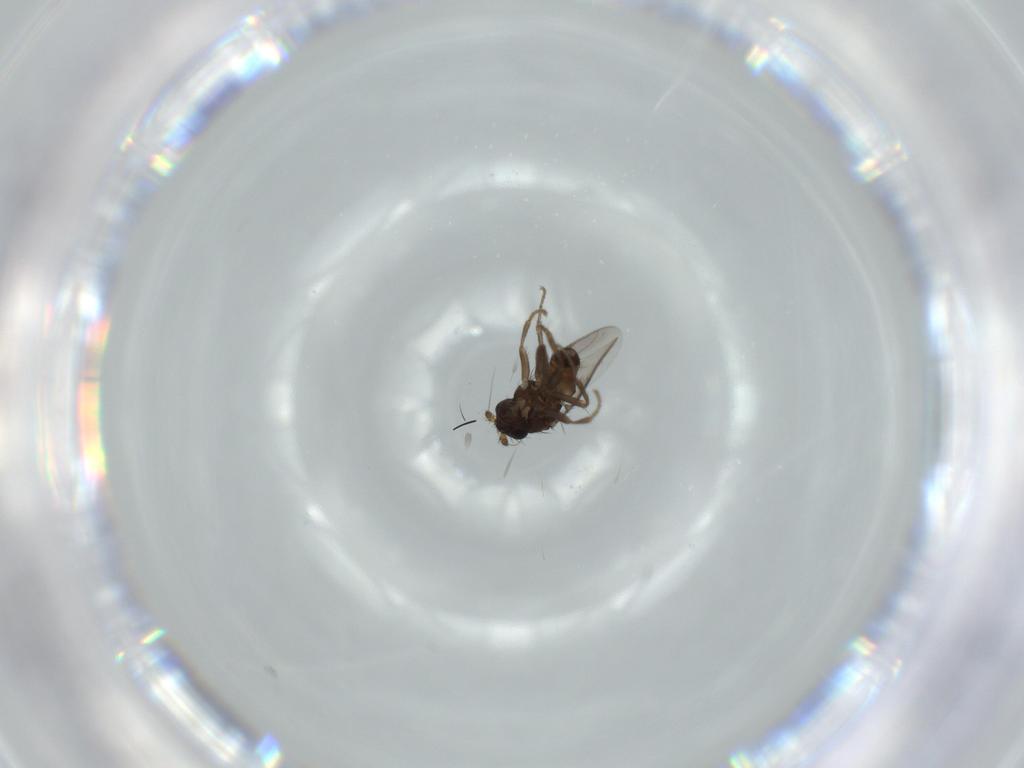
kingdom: Animalia
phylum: Arthropoda
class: Insecta
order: Diptera
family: Sphaeroceridae
